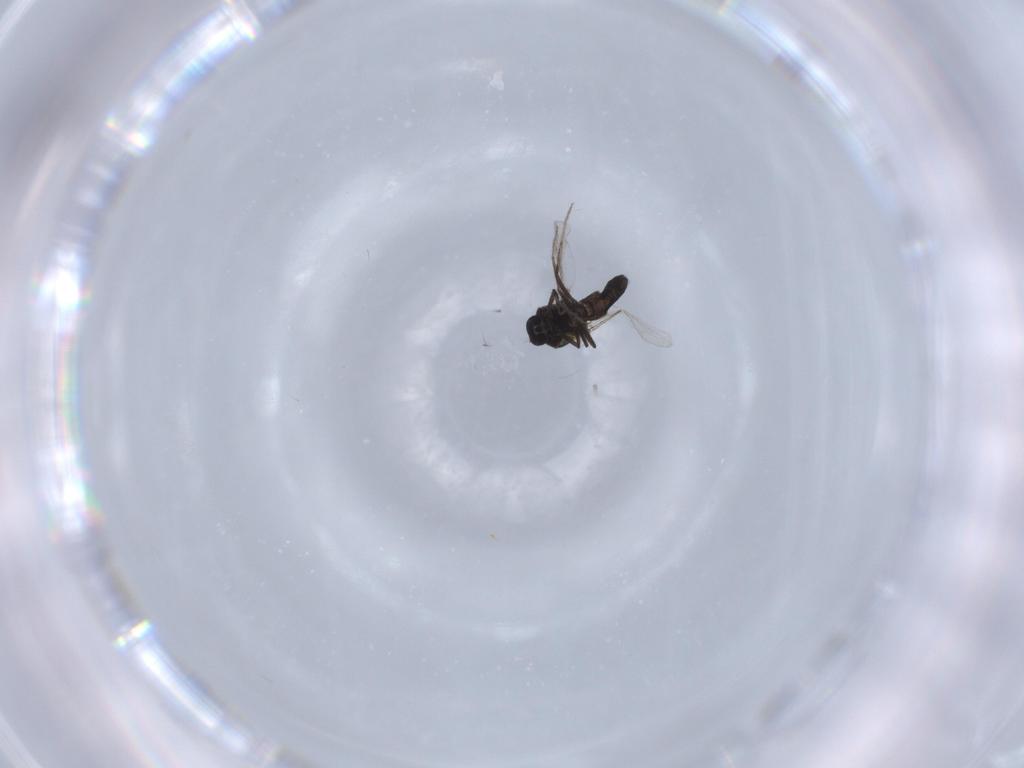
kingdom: Animalia
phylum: Arthropoda
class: Insecta
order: Diptera
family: Ceratopogonidae
